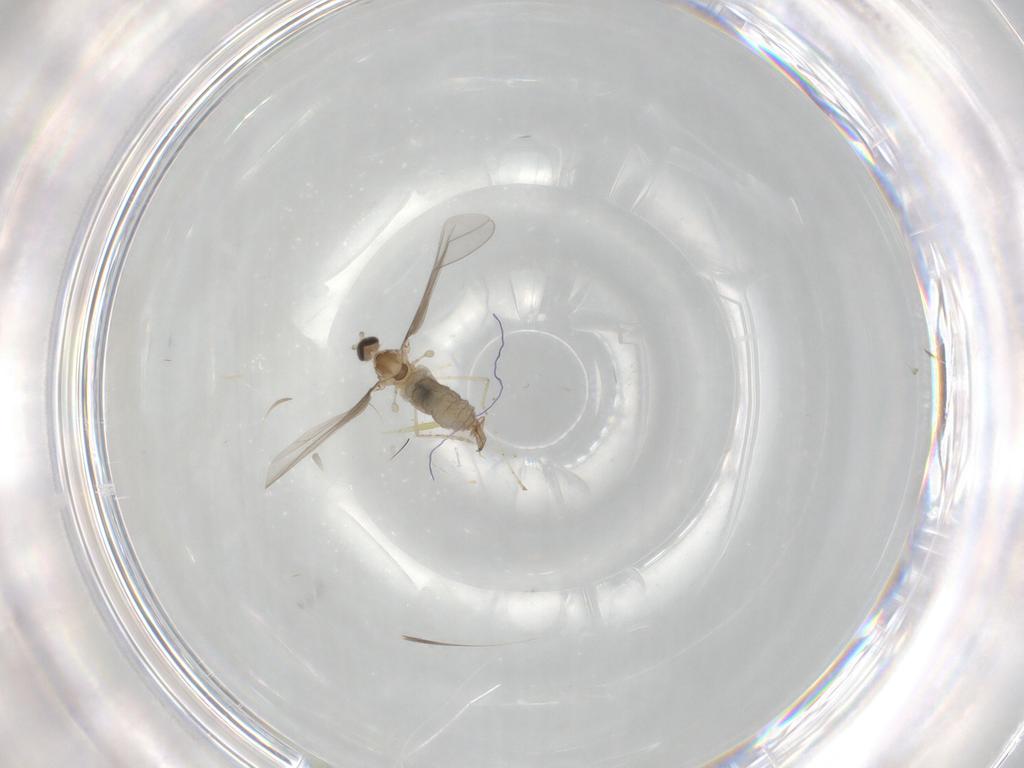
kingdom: Animalia
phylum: Arthropoda
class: Insecta
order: Diptera
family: Cecidomyiidae
